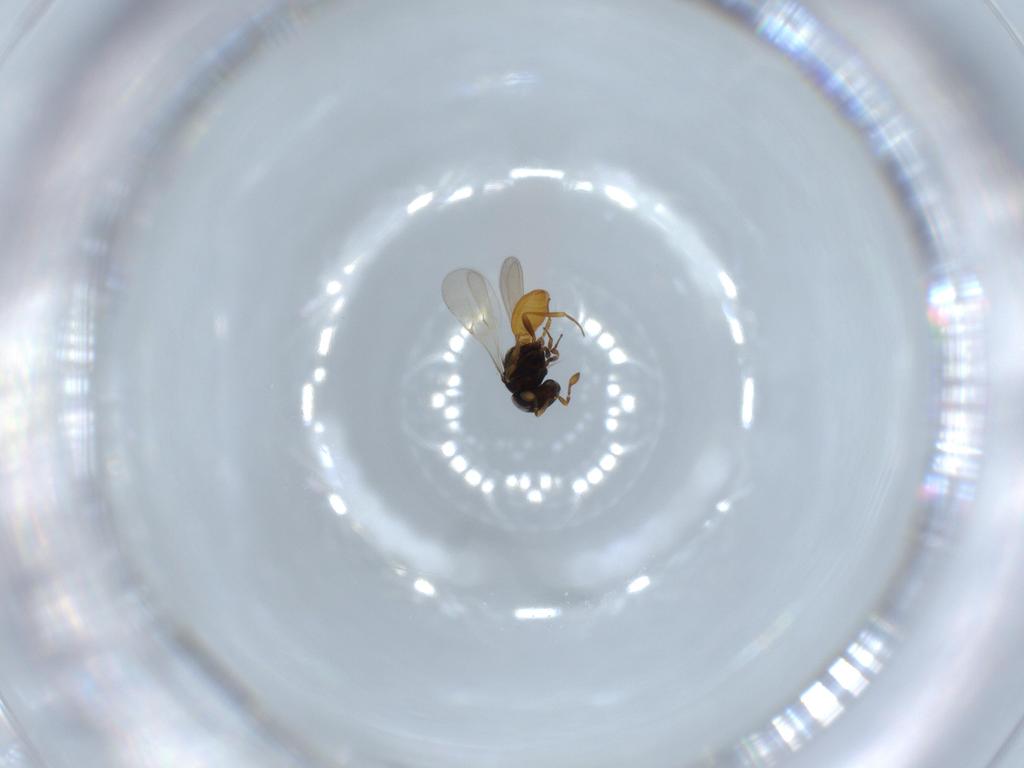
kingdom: Animalia
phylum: Arthropoda
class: Insecta
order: Hymenoptera
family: Scelionidae
